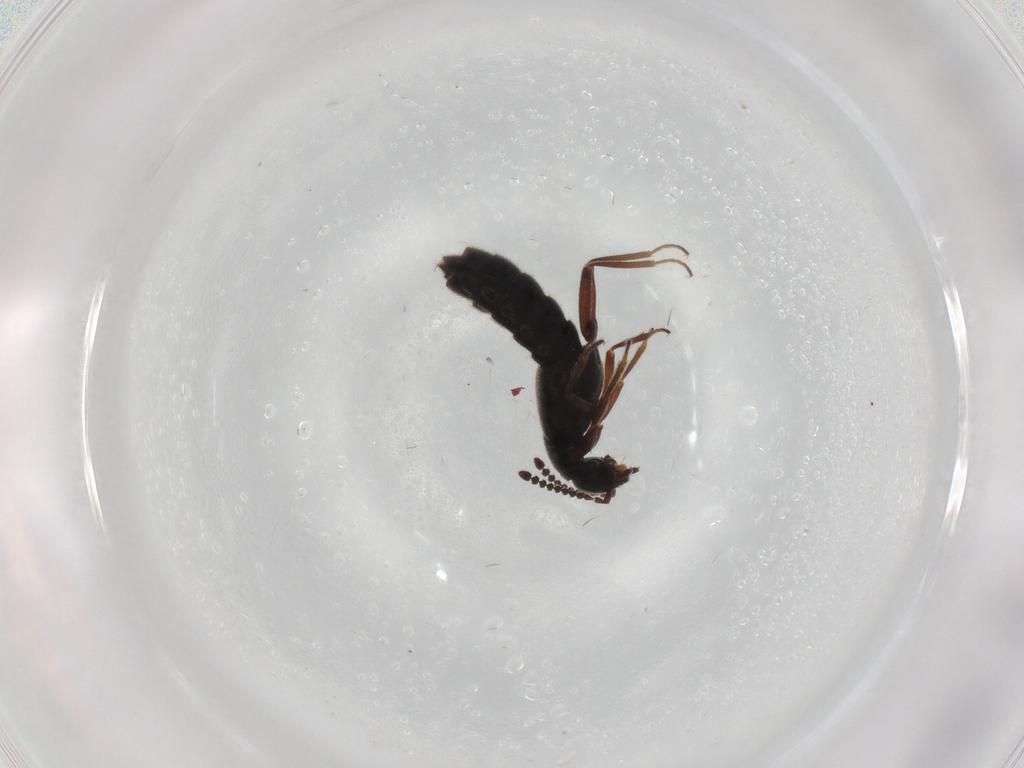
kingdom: Animalia
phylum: Arthropoda
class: Insecta
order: Coleoptera
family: Staphylinidae
